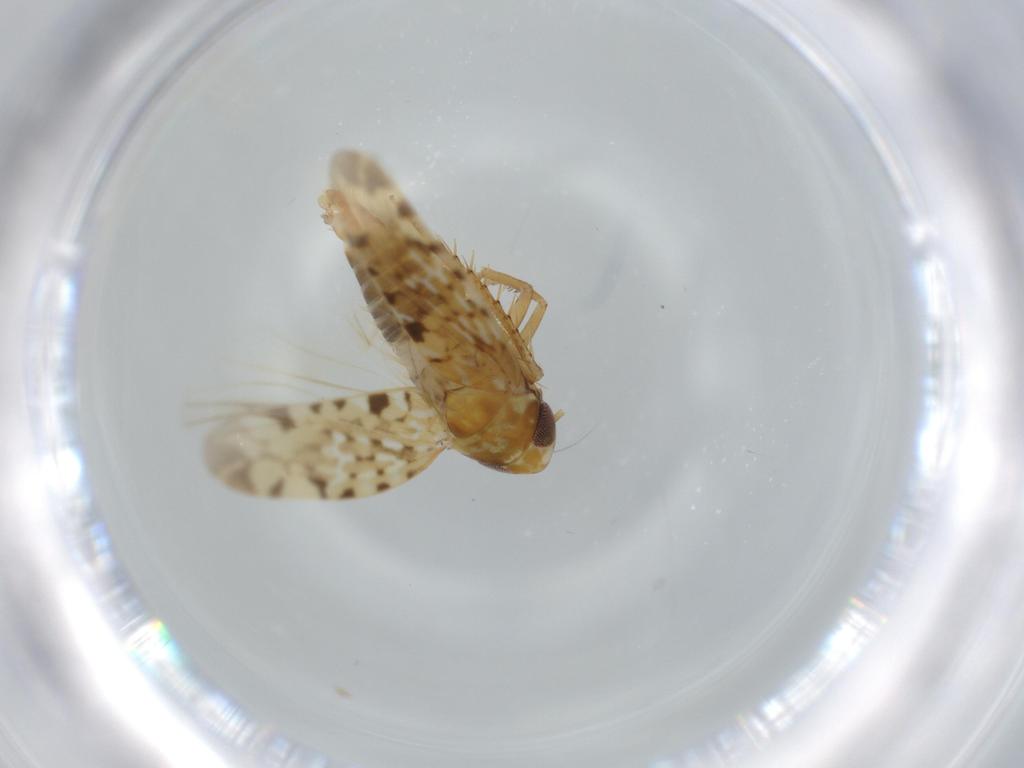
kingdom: Animalia
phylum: Arthropoda
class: Insecta
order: Hemiptera
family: Cicadellidae
